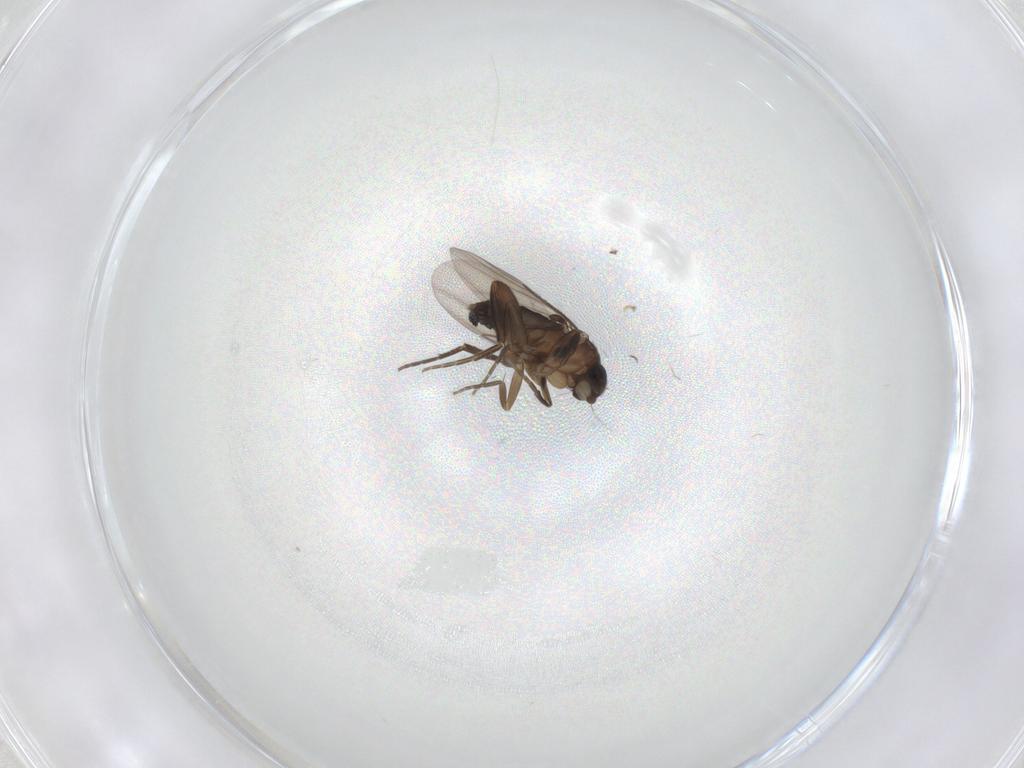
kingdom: Animalia
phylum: Arthropoda
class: Insecta
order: Diptera
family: Phoridae
